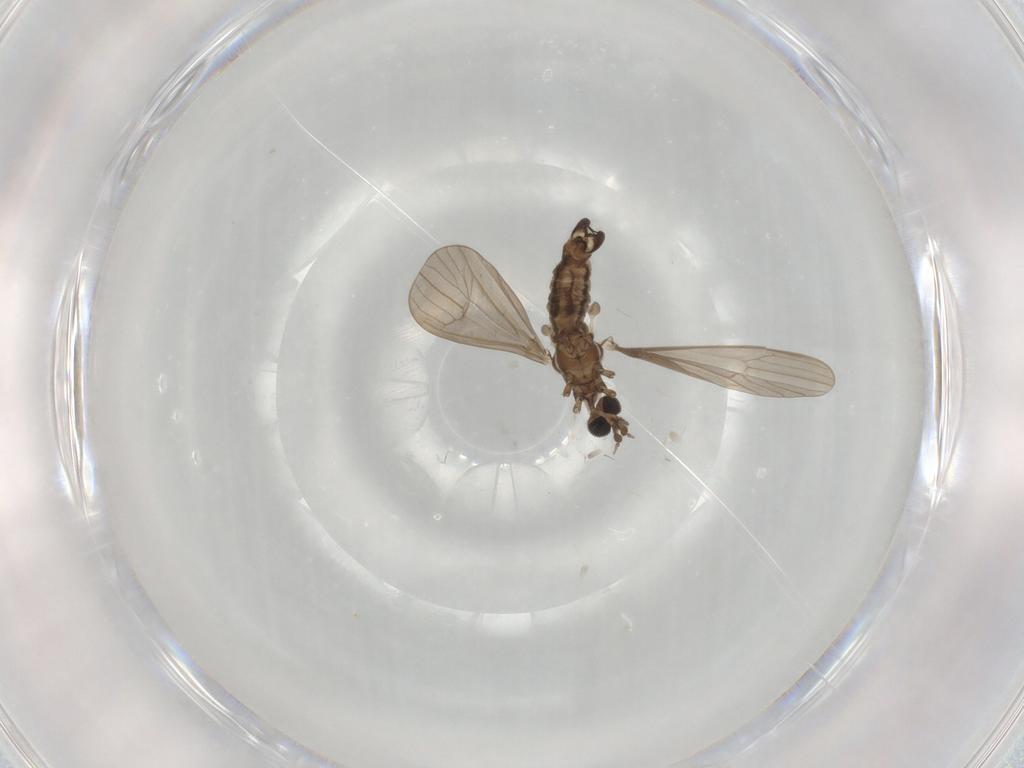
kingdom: Animalia
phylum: Arthropoda
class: Insecta
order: Diptera
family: Limoniidae
